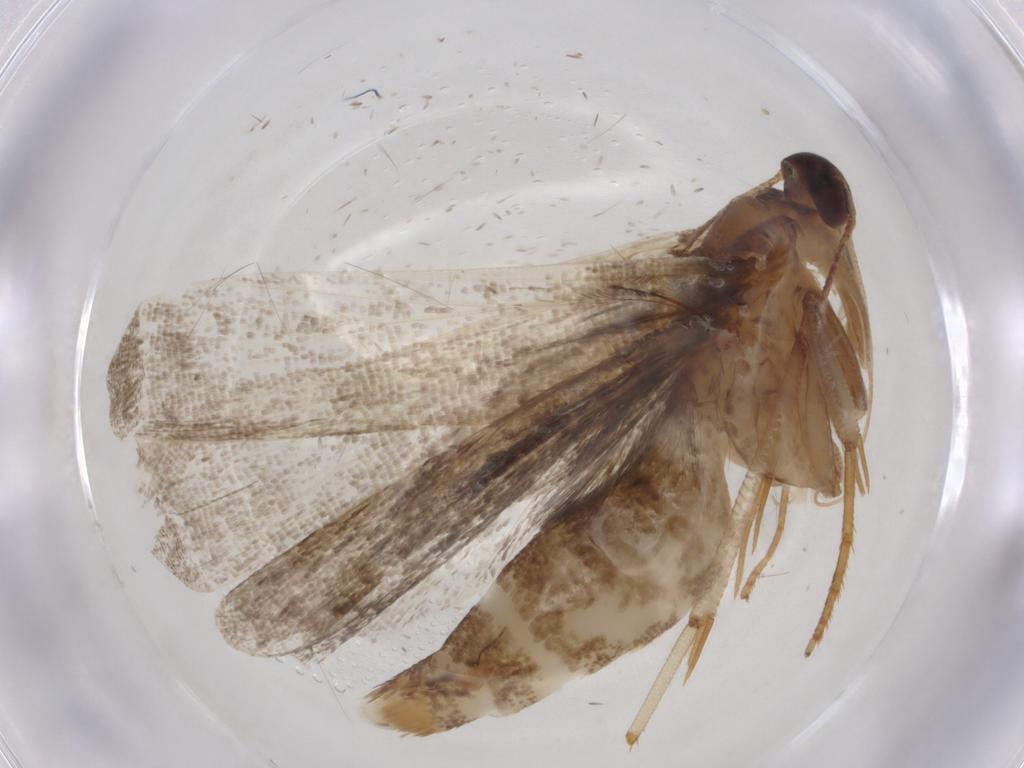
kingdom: Animalia
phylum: Arthropoda
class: Insecta
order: Lepidoptera
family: Nepticulidae
